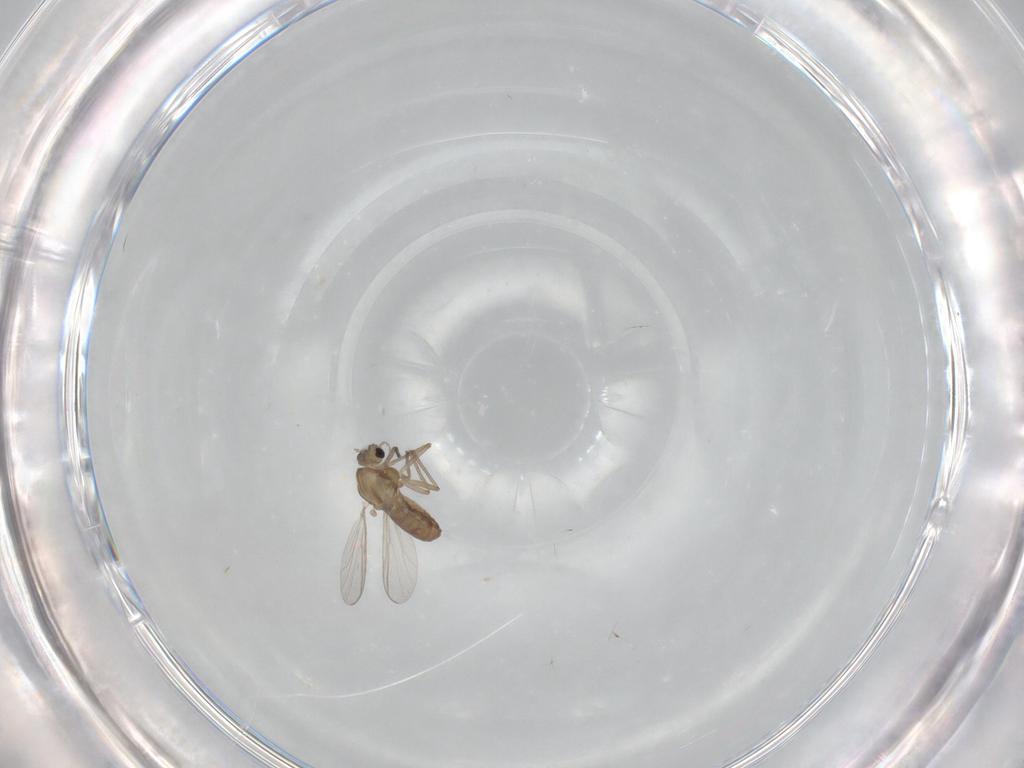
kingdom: Animalia
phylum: Arthropoda
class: Insecta
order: Diptera
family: Chironomidae
